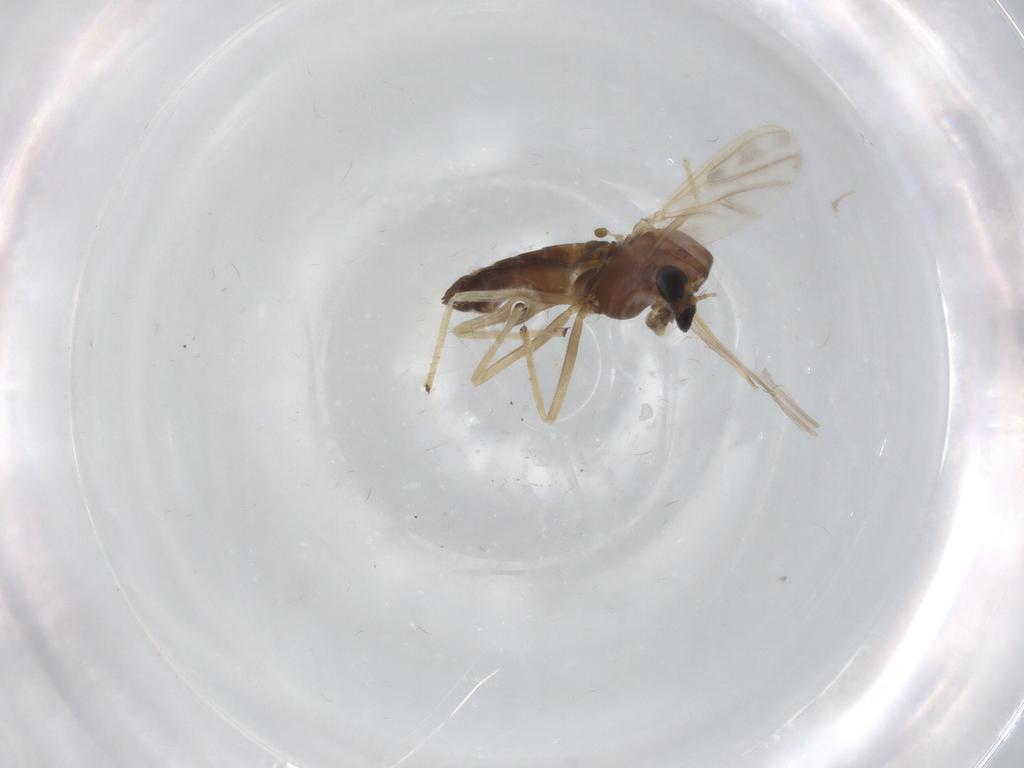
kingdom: Animalia
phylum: Arthropoda
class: Insecta
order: Diptera
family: Chironomidae
